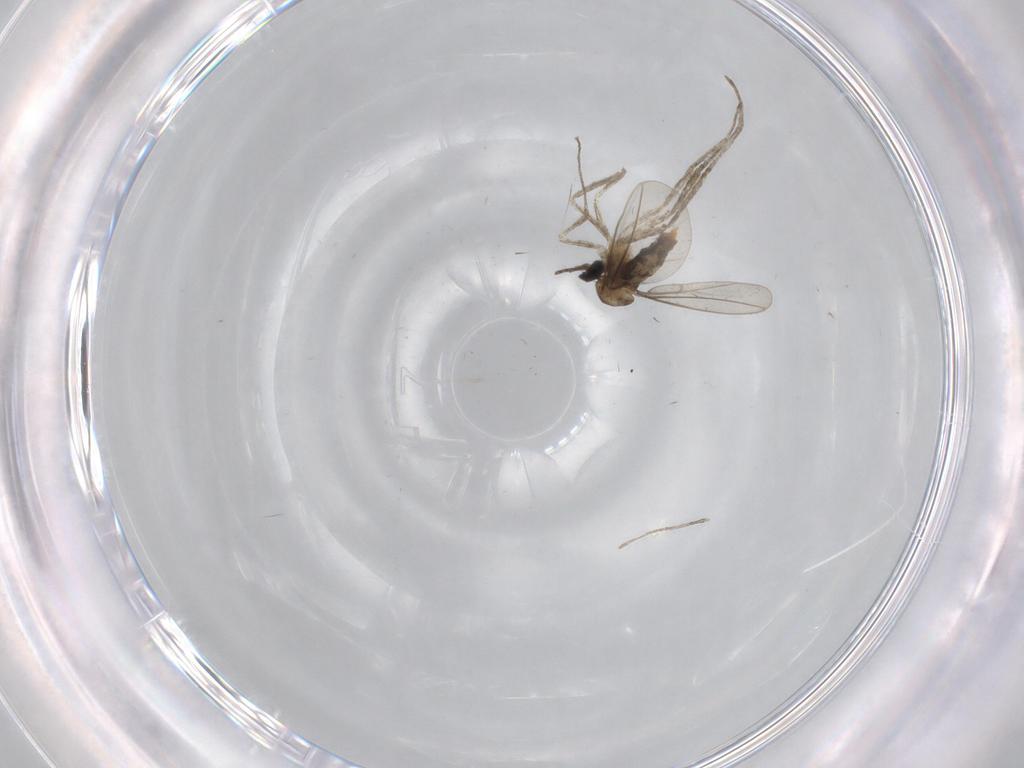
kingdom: Animalia
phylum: Arthropoda
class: Insecta
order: Diptera
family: Cecidomyiidae
